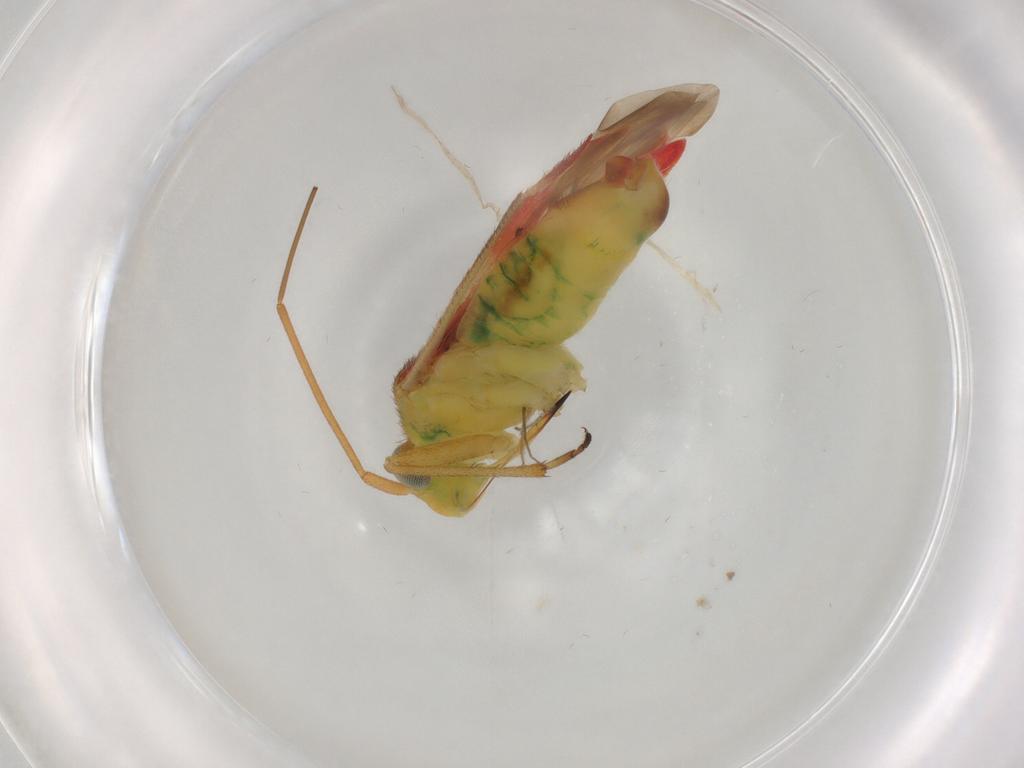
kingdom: Animalia
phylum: Arthropoda
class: Insecta
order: Hemiptera
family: Miridae
